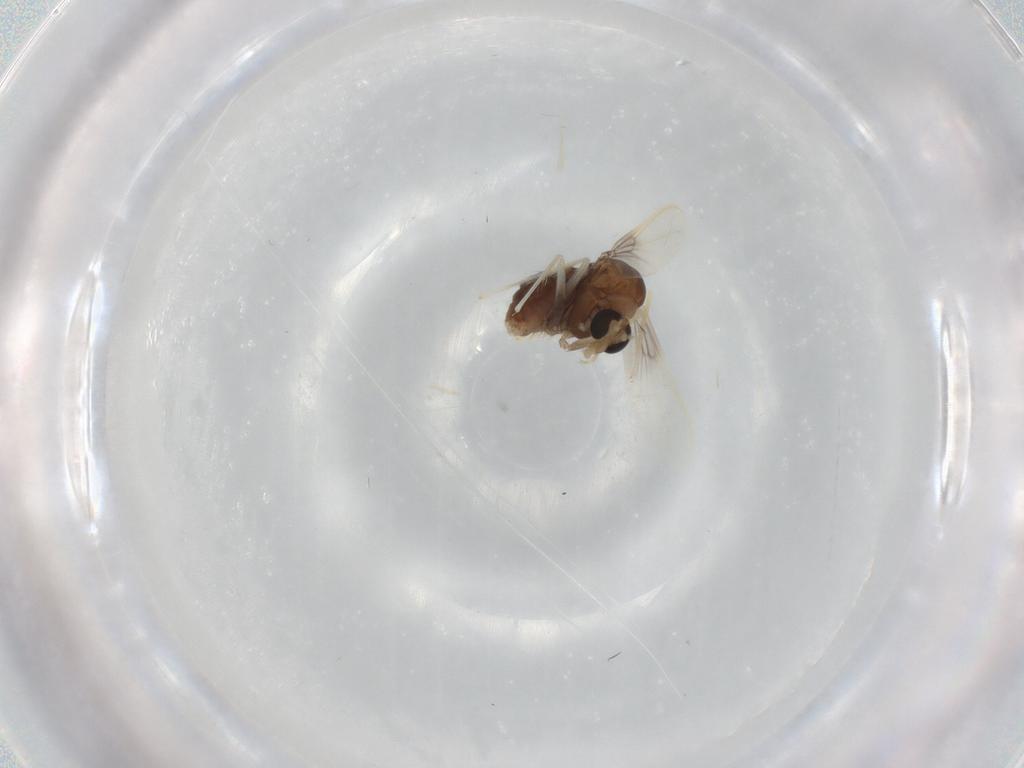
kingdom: Animalia
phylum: Arthropoda
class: Insecta
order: Diptera
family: Chironomidae
